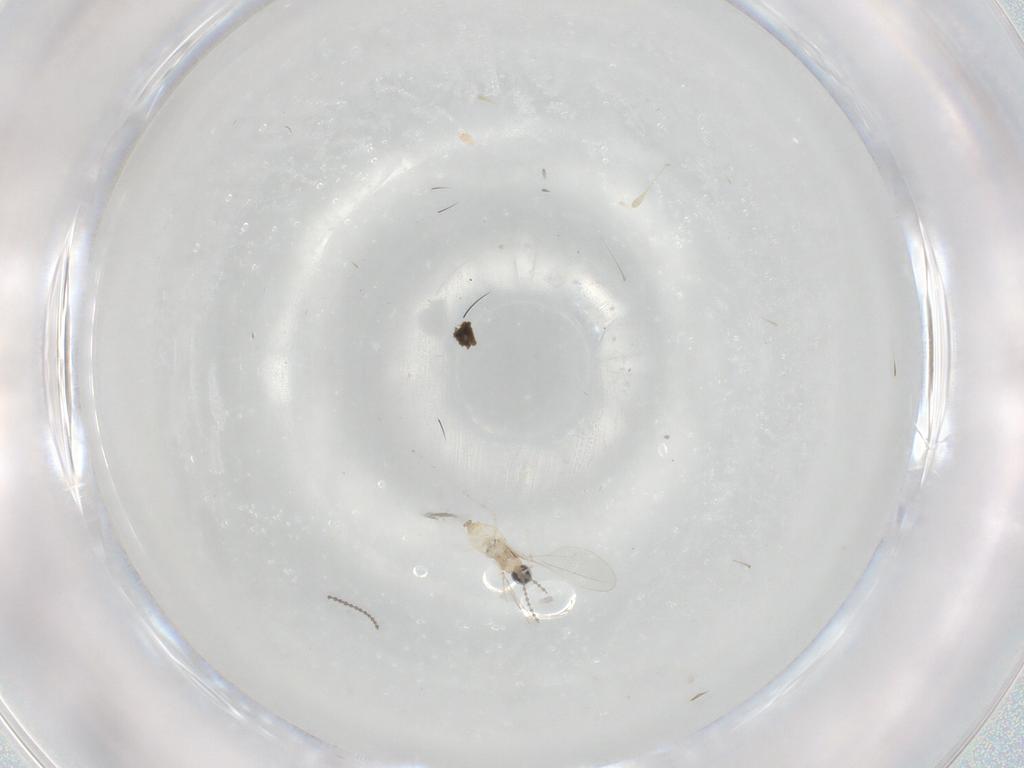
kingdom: Animalia
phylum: Arthropoda
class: Insecta
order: Diptera
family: Cecidomyiidae
